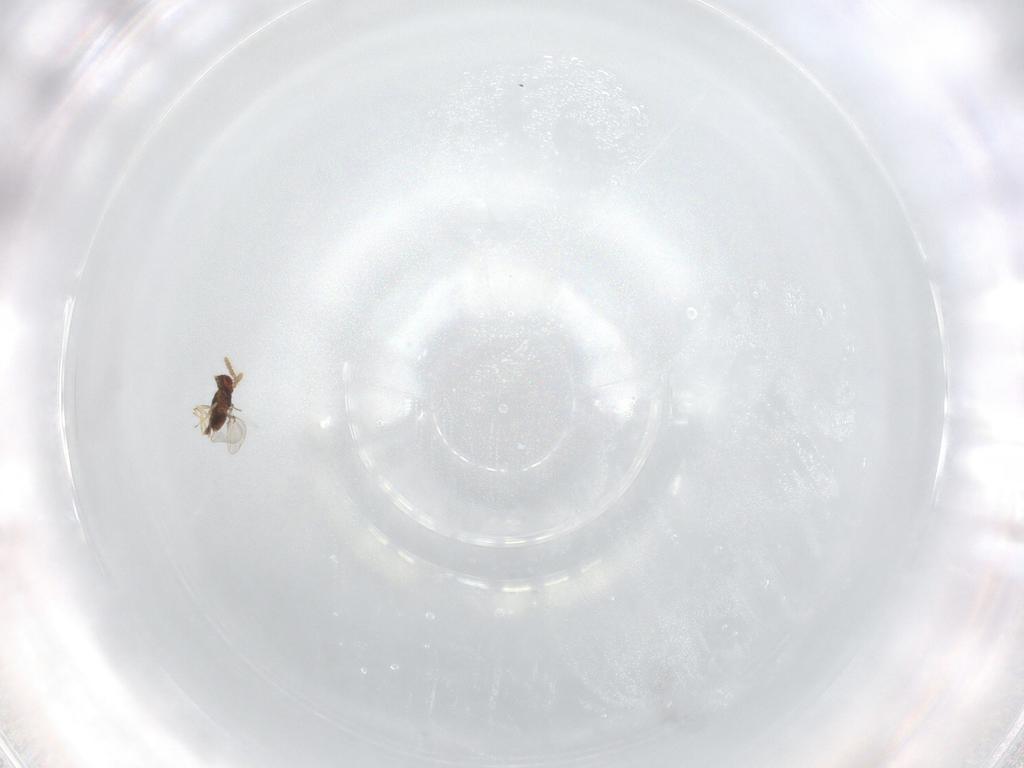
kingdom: Animalia
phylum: Arthropoda
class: Insecta
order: Hymenoptera
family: Trichogrammatidae
